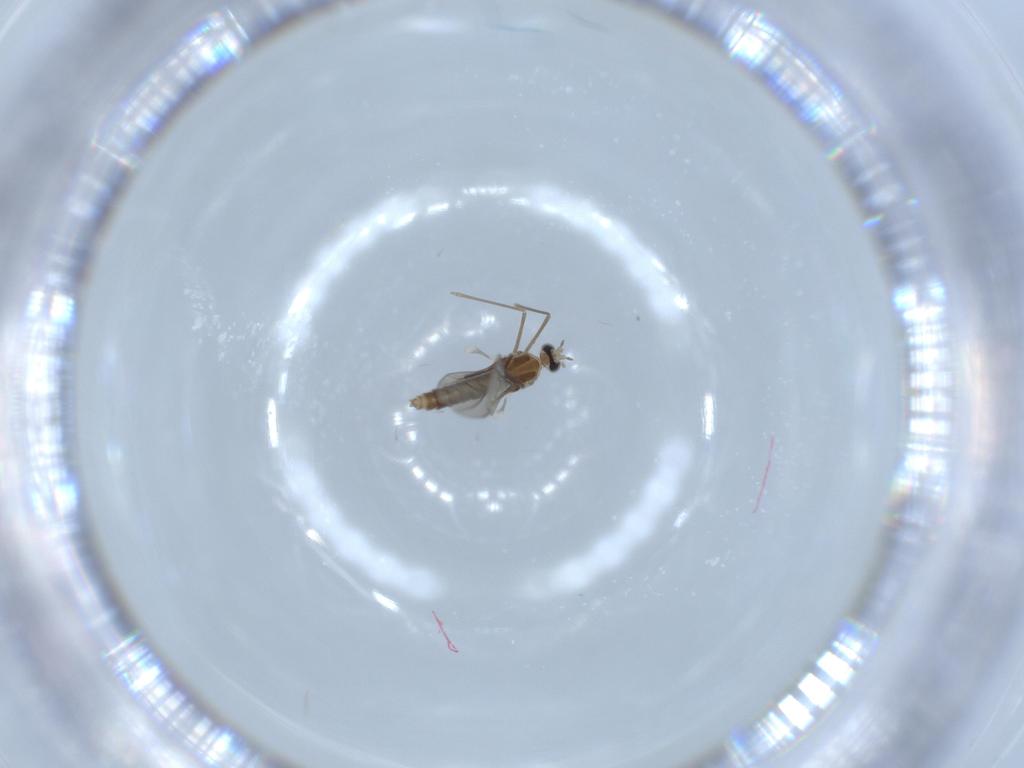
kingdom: Animalia
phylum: Arthropoda
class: Insecta
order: Diptera
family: Cecidomyiidae
